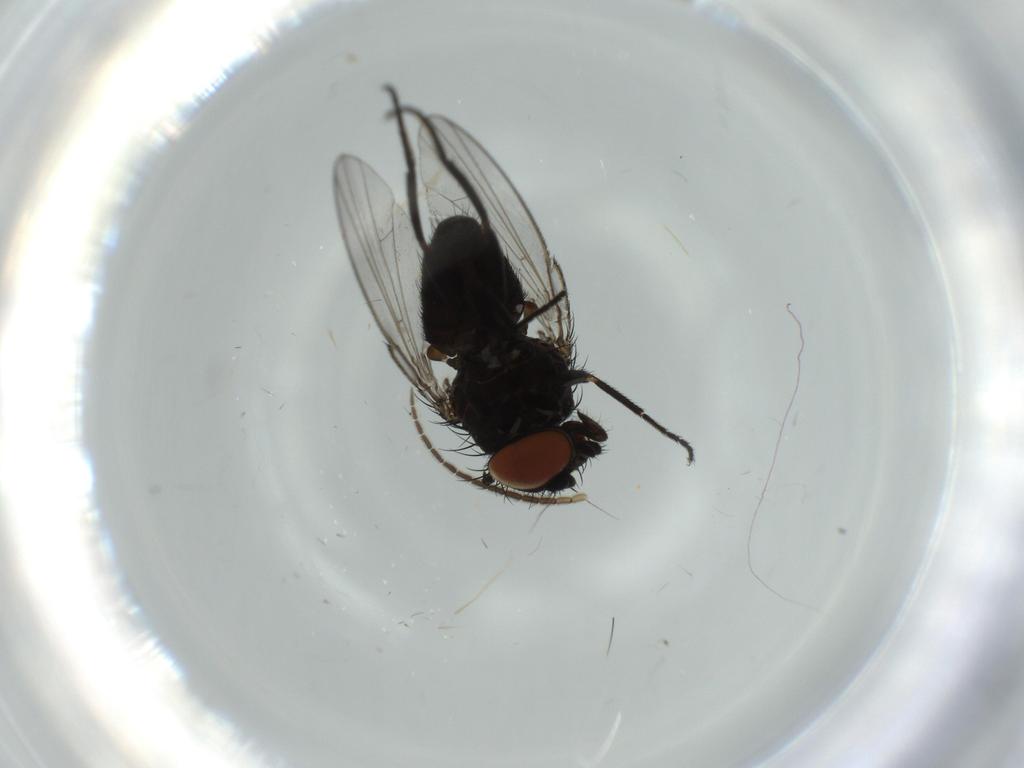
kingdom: Animalia
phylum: Arthropoda
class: Insecta
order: Diptera
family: Milichiidae
